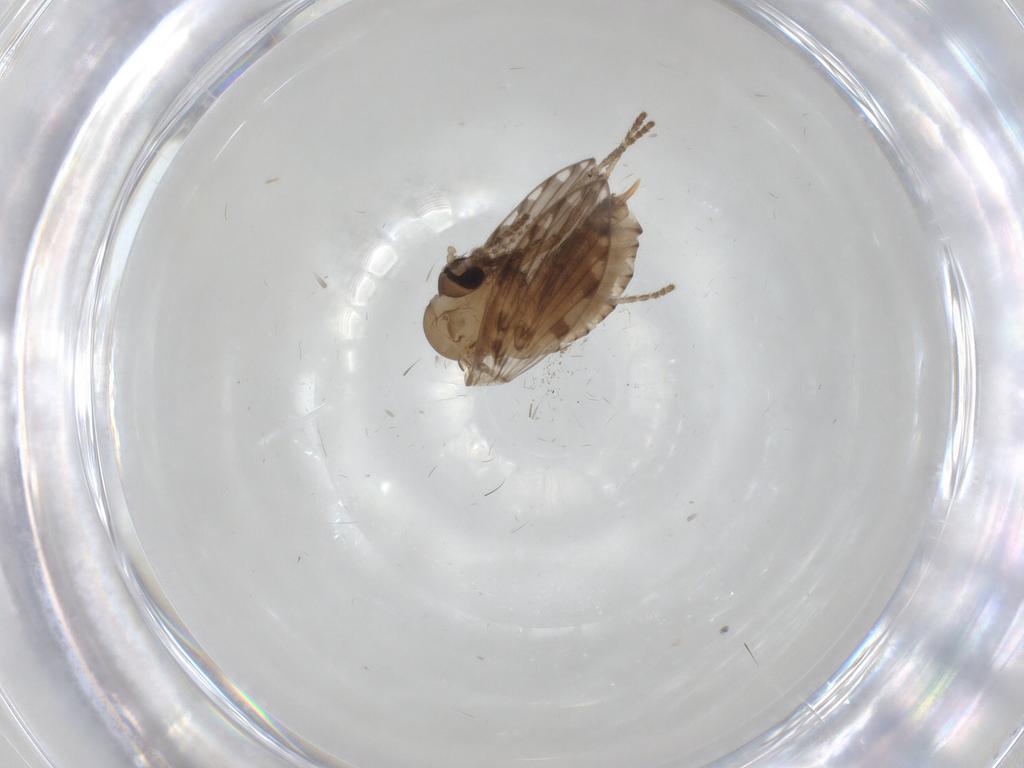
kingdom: Animalia
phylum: Arthropoda
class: Insecta
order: Diptera
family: Psychodidae
